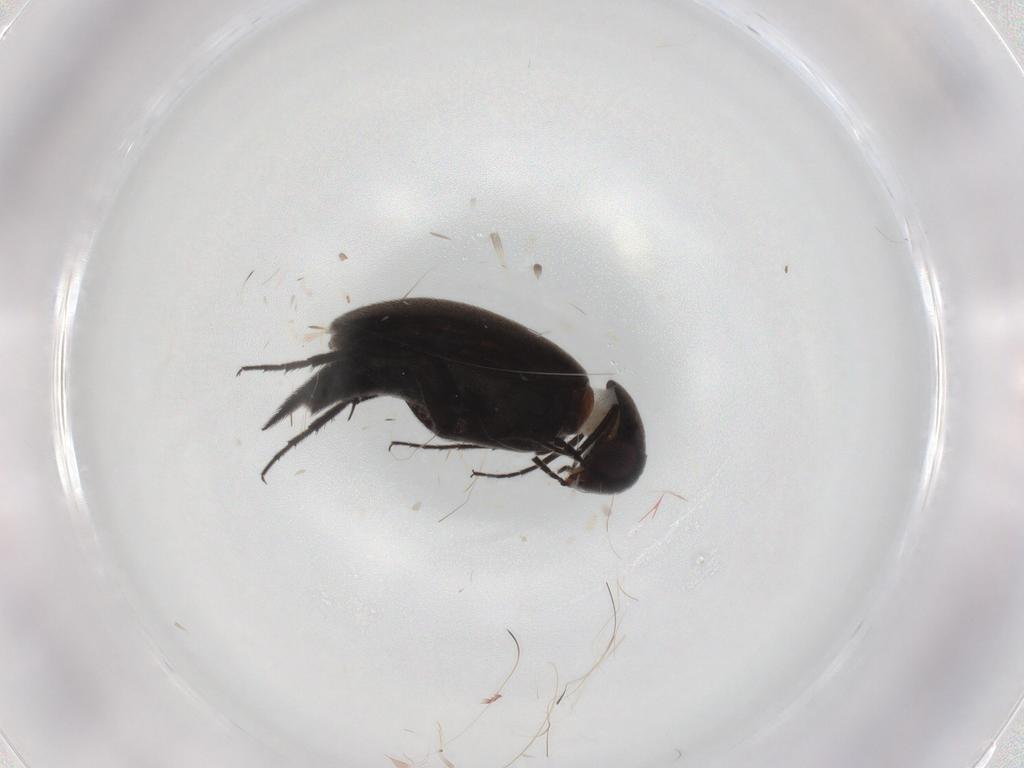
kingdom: Animalia
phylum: Arthropoda
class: Insecta
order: Coleoptera
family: Mordellidae
